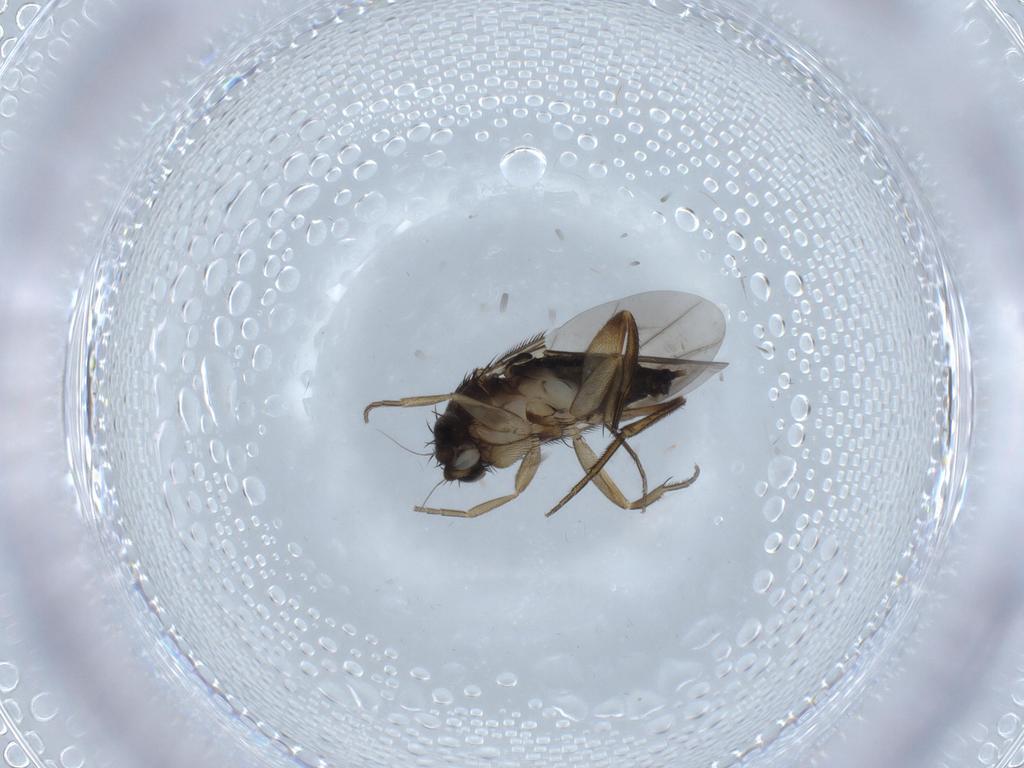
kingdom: Animalia
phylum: Arthropoda
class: Insecta
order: Diptera
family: Phoridae
